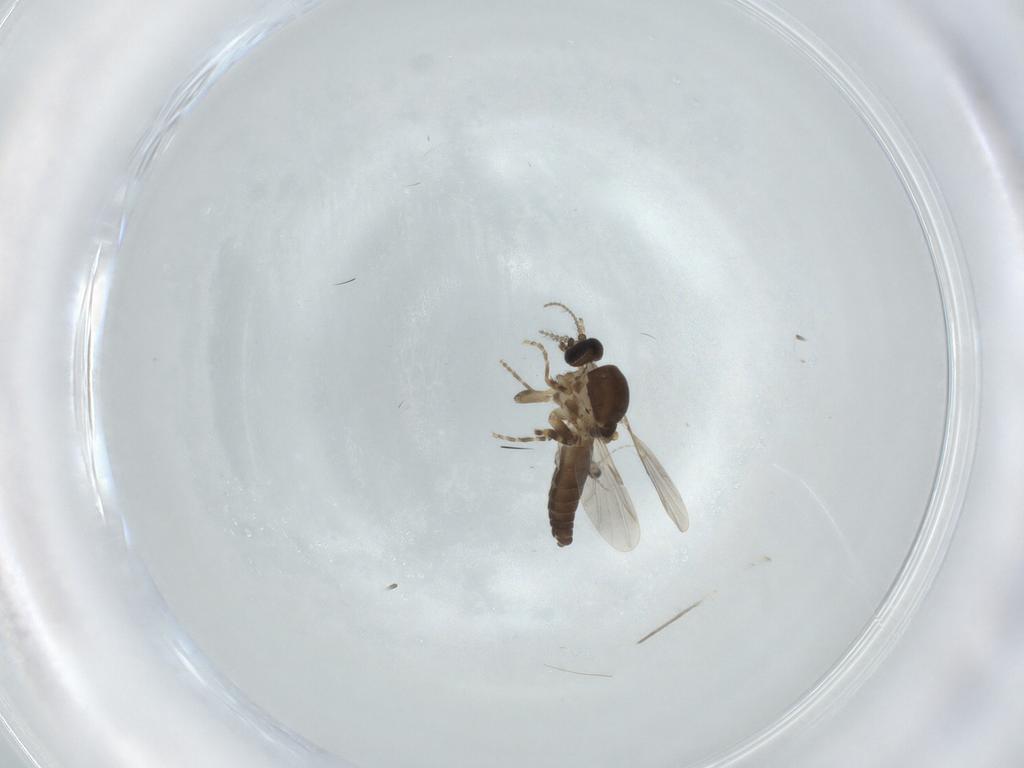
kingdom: Animalia
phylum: Arthropoda
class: Insecta
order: Diptera
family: Ceratopogonidae
